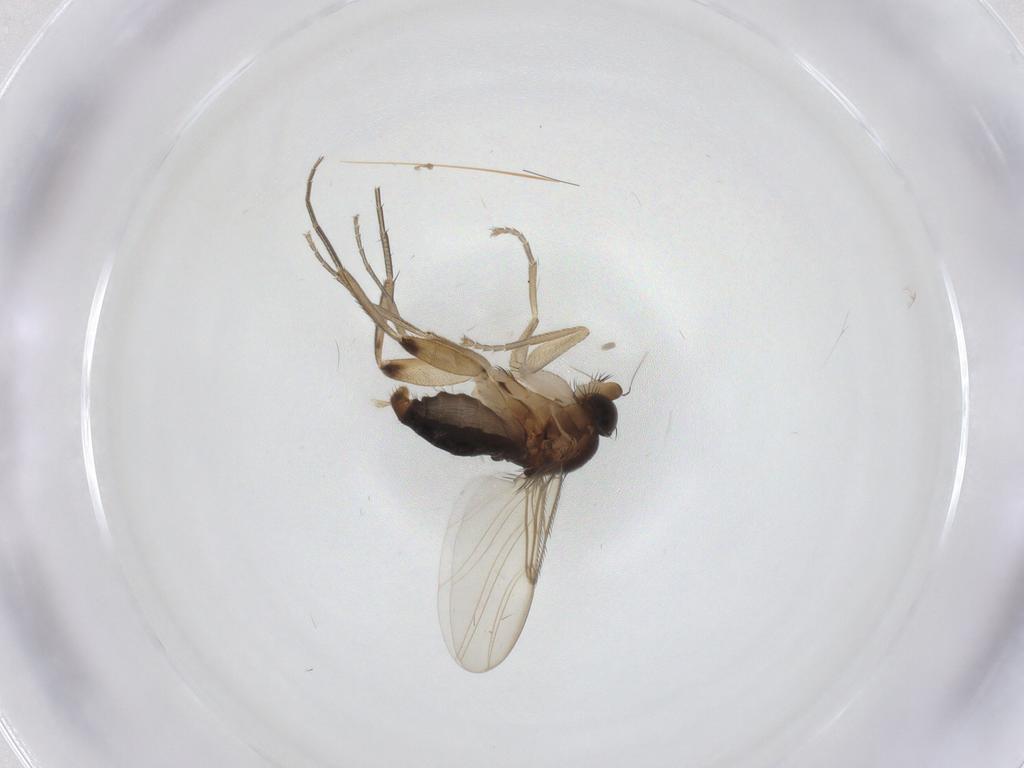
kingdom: Animalia
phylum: Arthropoda
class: Insecta
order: Diptera
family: Phoridae
